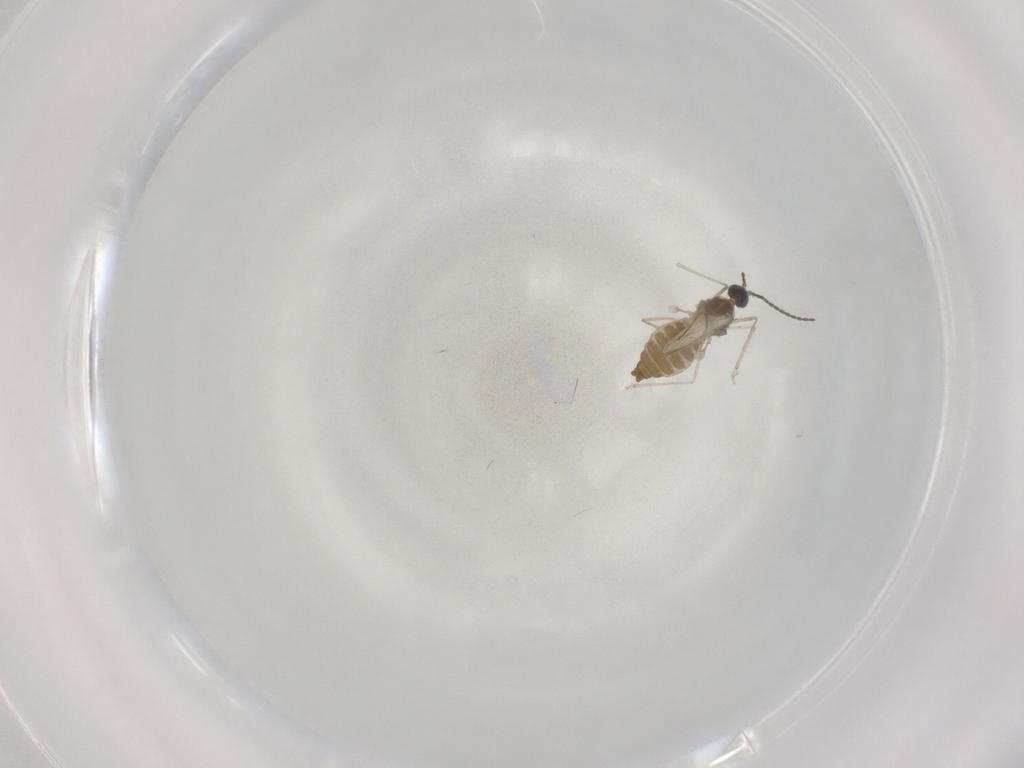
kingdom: Animalia
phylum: Arthropoda
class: Insecta
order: Diptera
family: Cecidomyiidae
